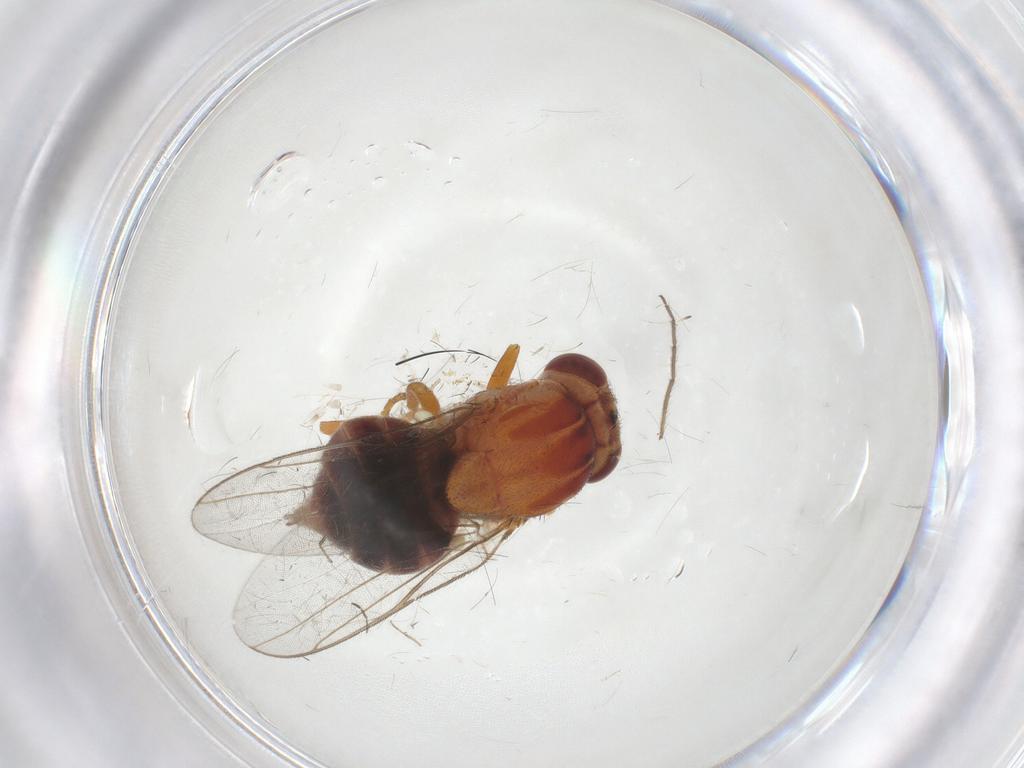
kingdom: Animalia
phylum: Arthropoda
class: Insecta
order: Diptera
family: Chloropidae
